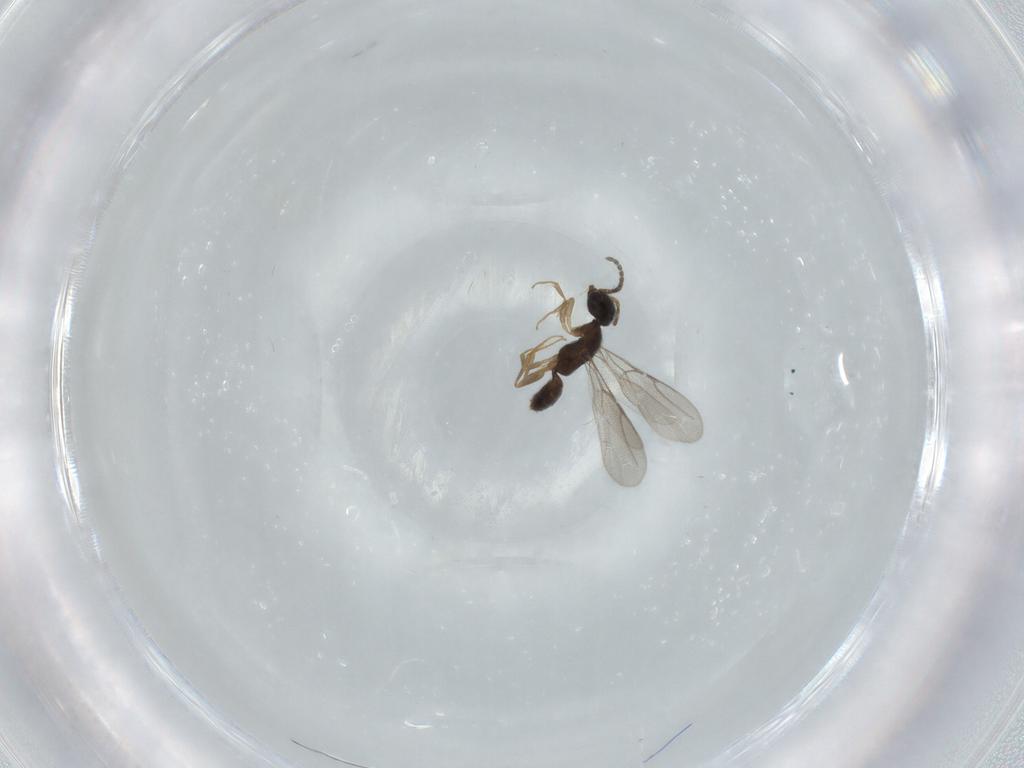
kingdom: Animalia
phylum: Arthropoda
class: Insecta
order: Hymenoptera
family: Bethylidae
